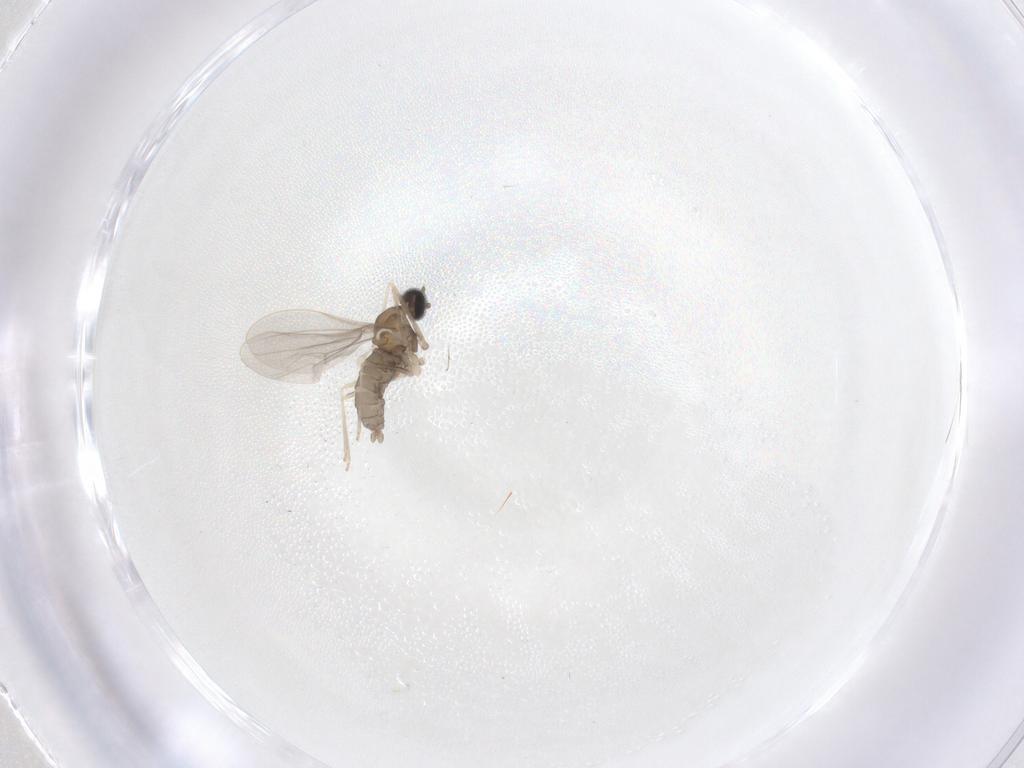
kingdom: Animalia
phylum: Arthropoda
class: Insecta
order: Diptera
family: Cecidomyiidae
